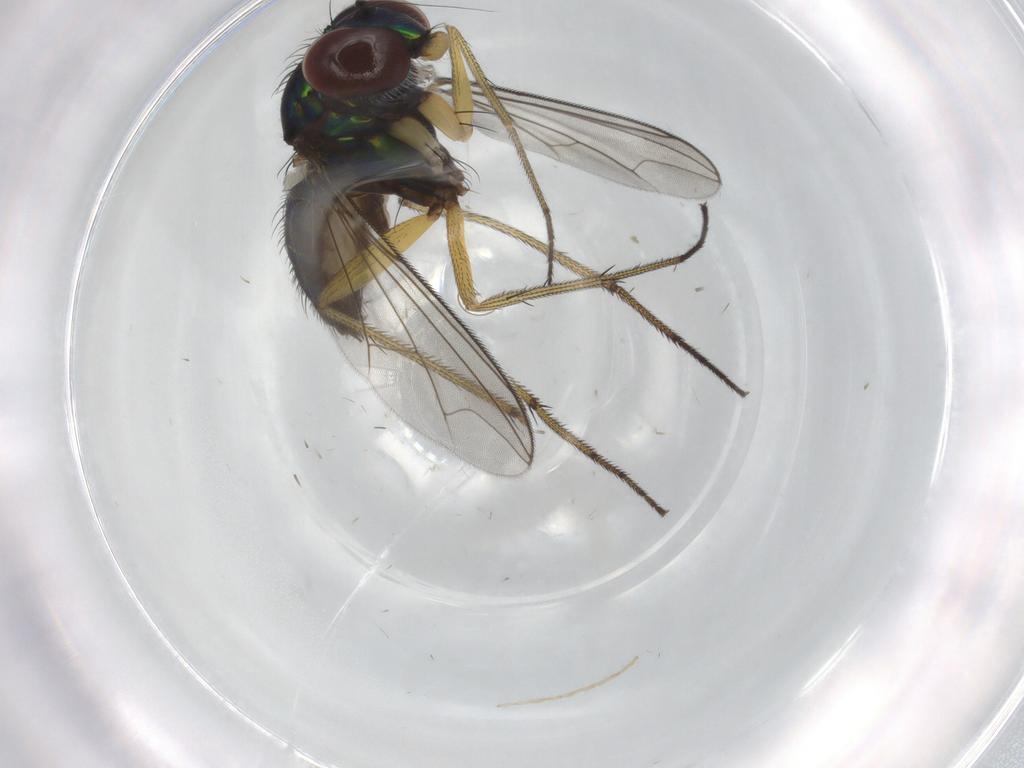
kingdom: Animalia
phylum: Arthropoda
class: Insecta
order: Diptera
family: Dolichopodidae
